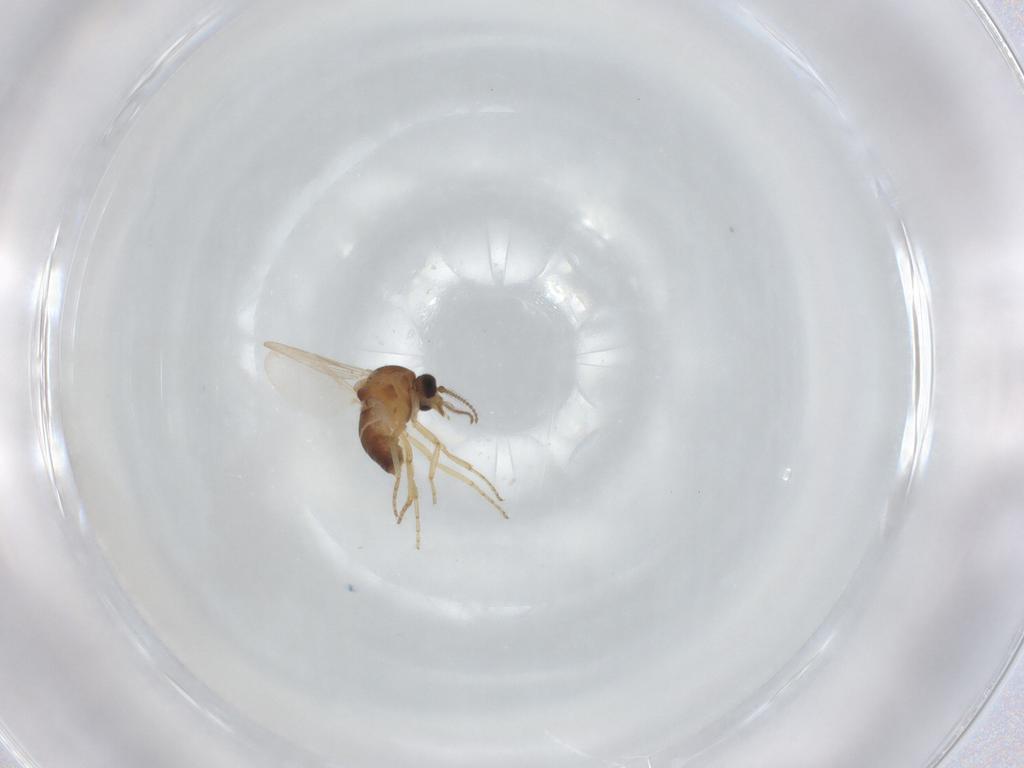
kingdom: Animalia
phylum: Arthropoda
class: Insecta
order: Diptera
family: Ceratopogonidae
